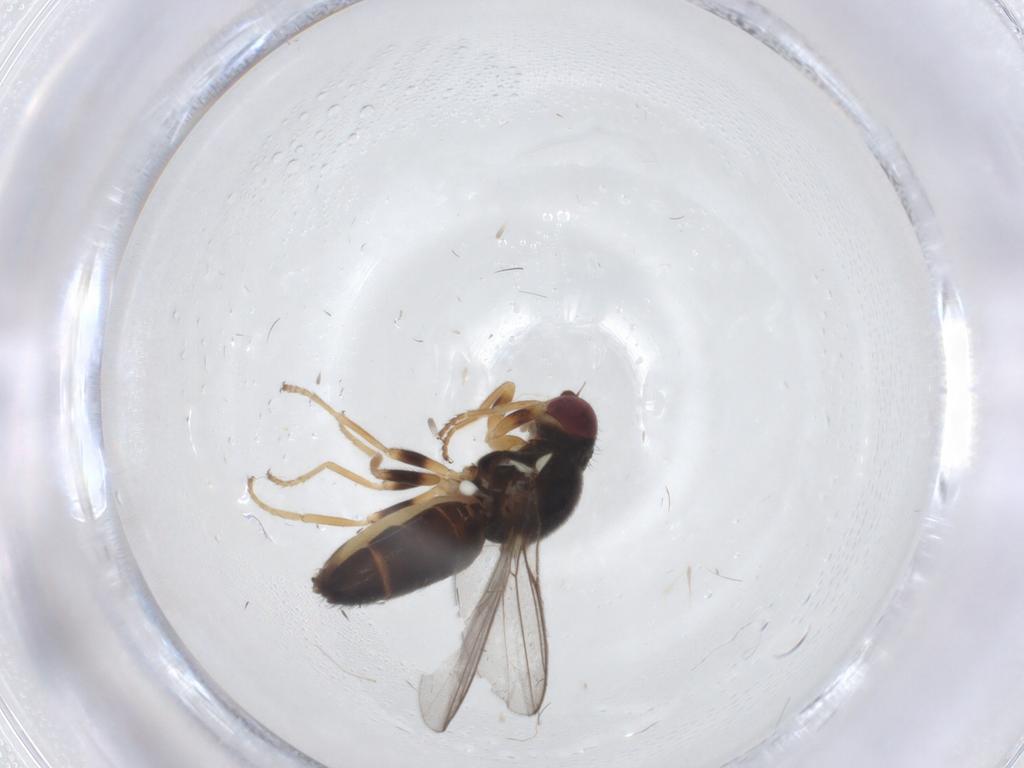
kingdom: Animalia
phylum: Arthropoda
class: Insecta
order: Diptera
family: Chloropidae
